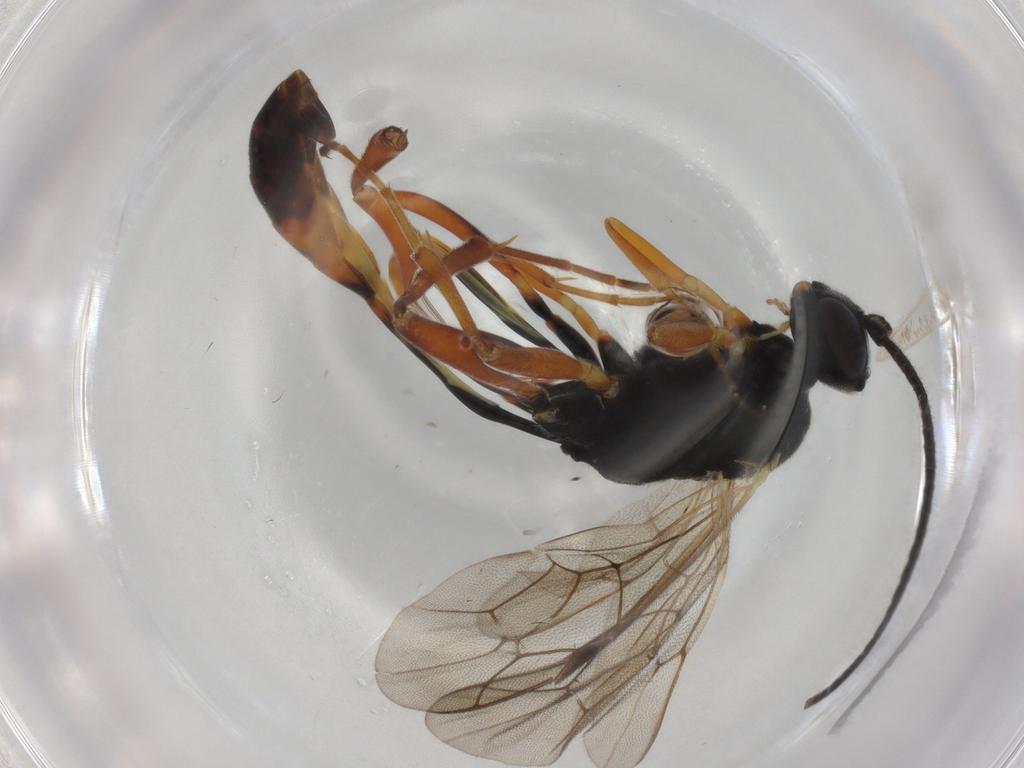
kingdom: Animalia
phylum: Arthropoda
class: Insecta
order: Hymenoptera
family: Ichneumonidae
